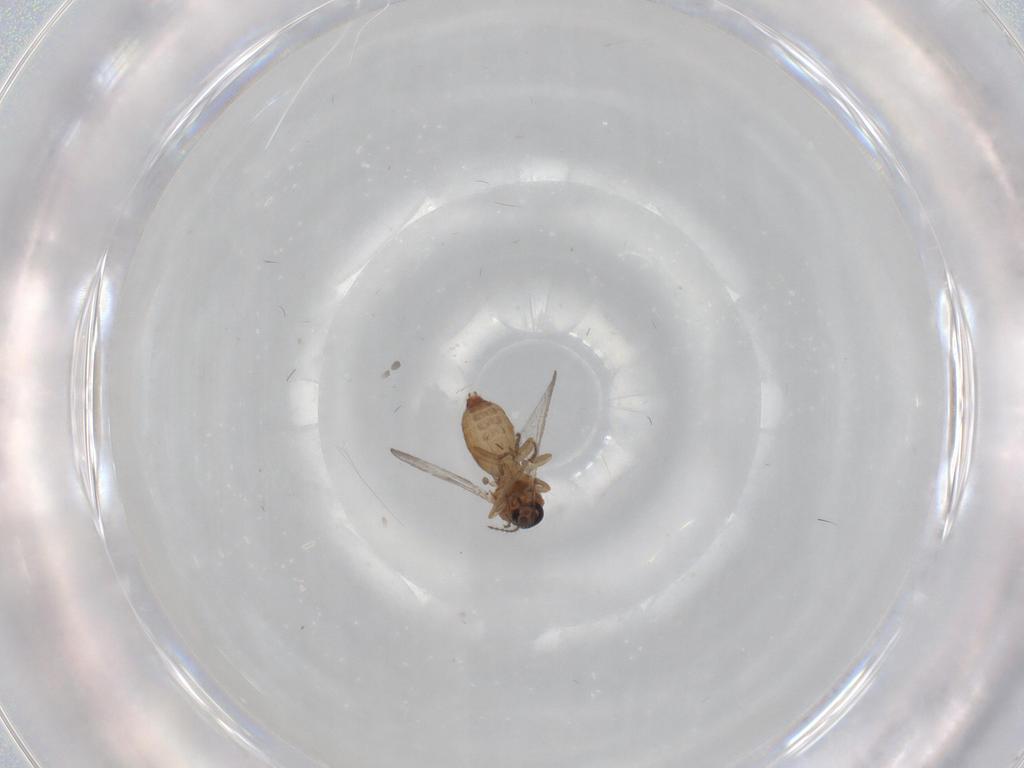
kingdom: Animalia
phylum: Arthropoda
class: Insecta
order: Diptera
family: Ceratopogonidae
